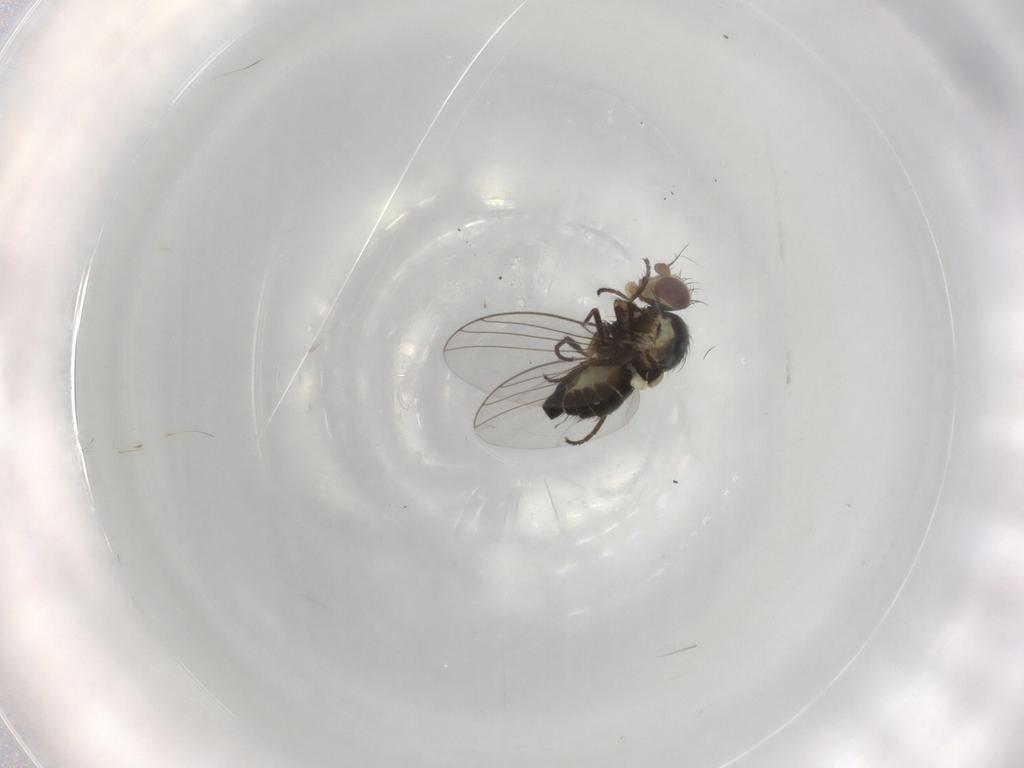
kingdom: Animalia
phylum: Arthropoda
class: Insecta
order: Diptera
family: Agromyzidae
